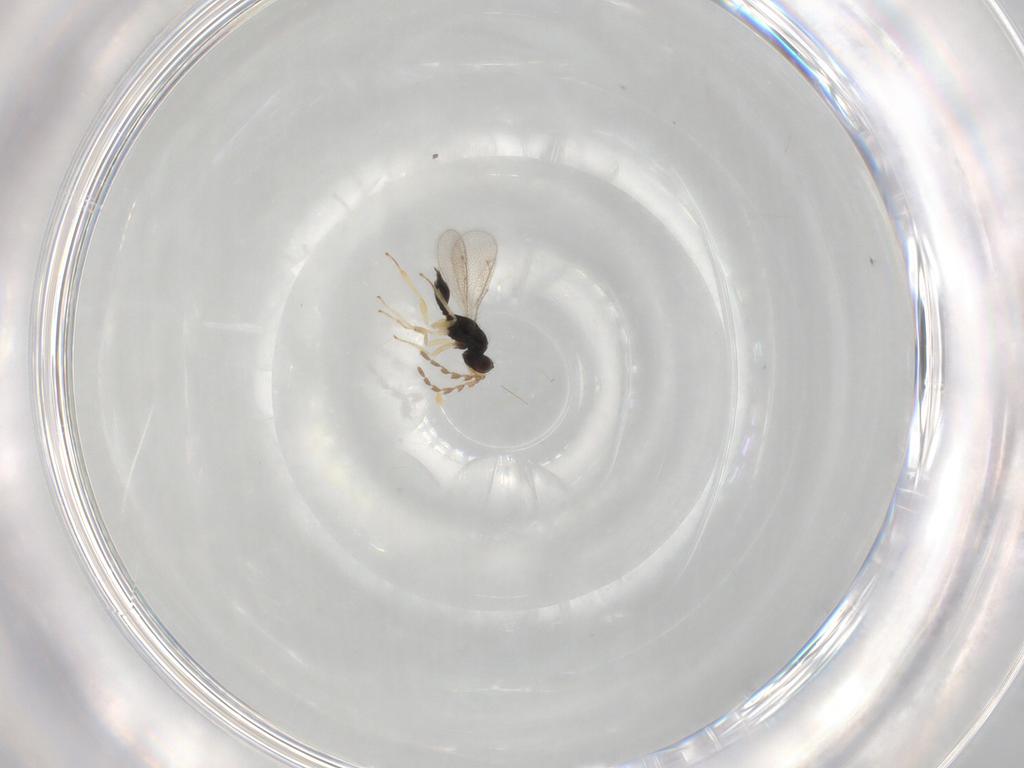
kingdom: Animalia
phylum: Arthropoda
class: Insecta
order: Hymenoptera
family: Eulophidae
